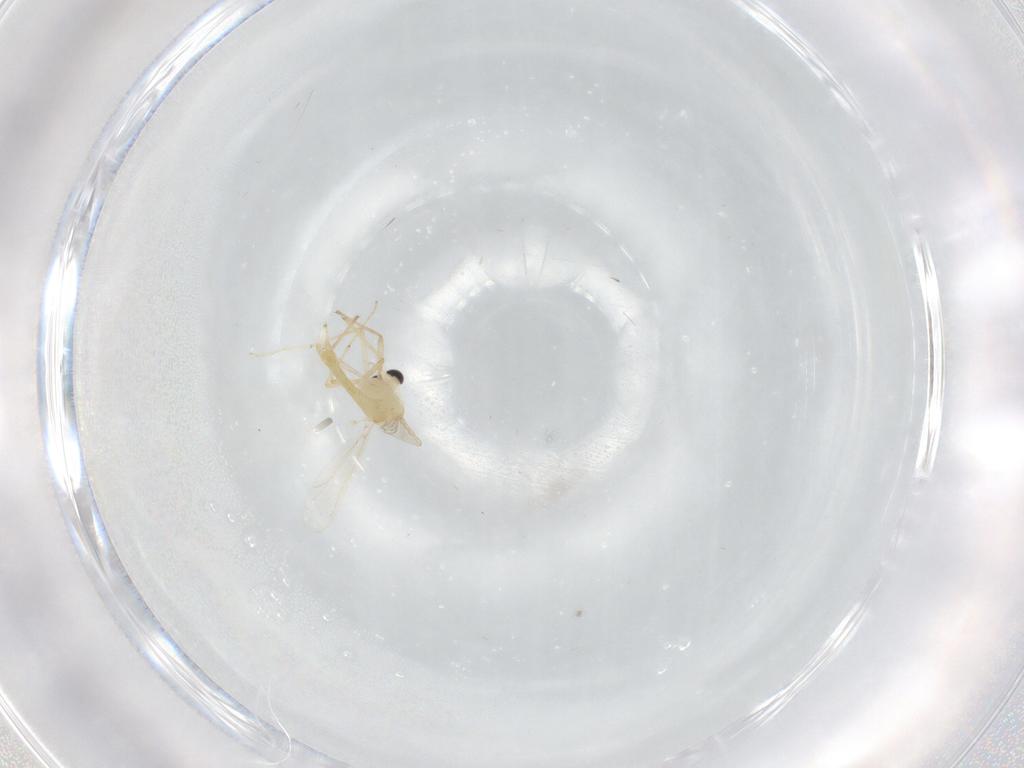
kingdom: Animalia
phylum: Arthropoda
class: Insecta
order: Diptera
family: Chironomidae
